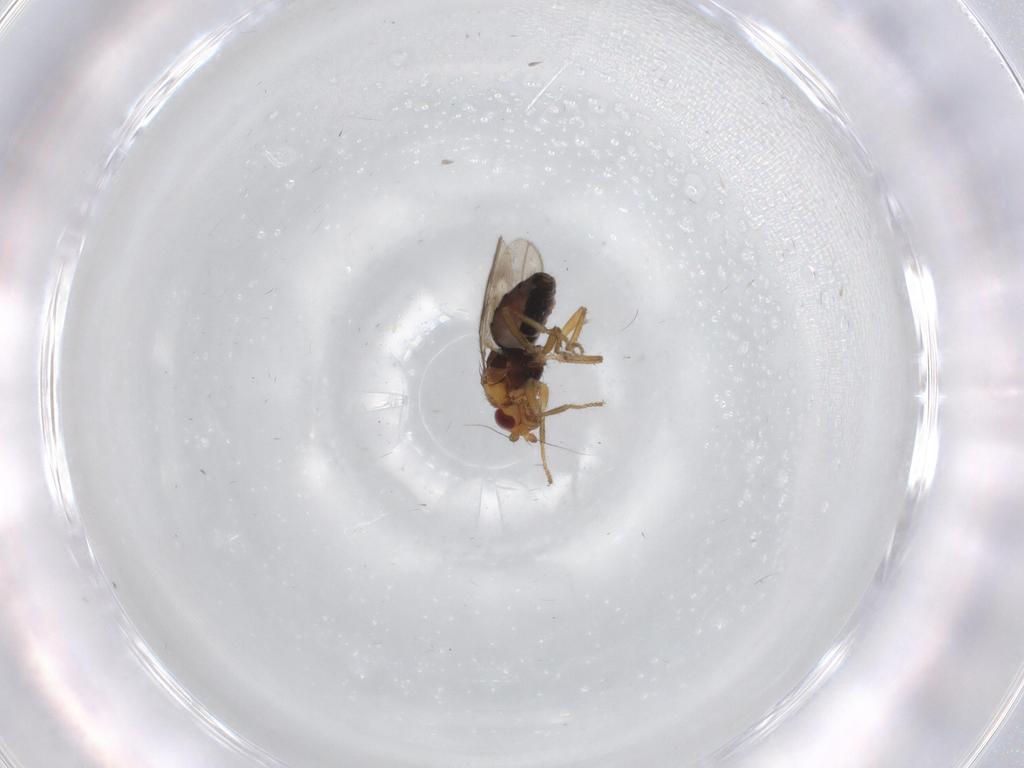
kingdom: Animalia
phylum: Arthropoda
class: Insecta
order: Diptera
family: Sphaeroceridae
